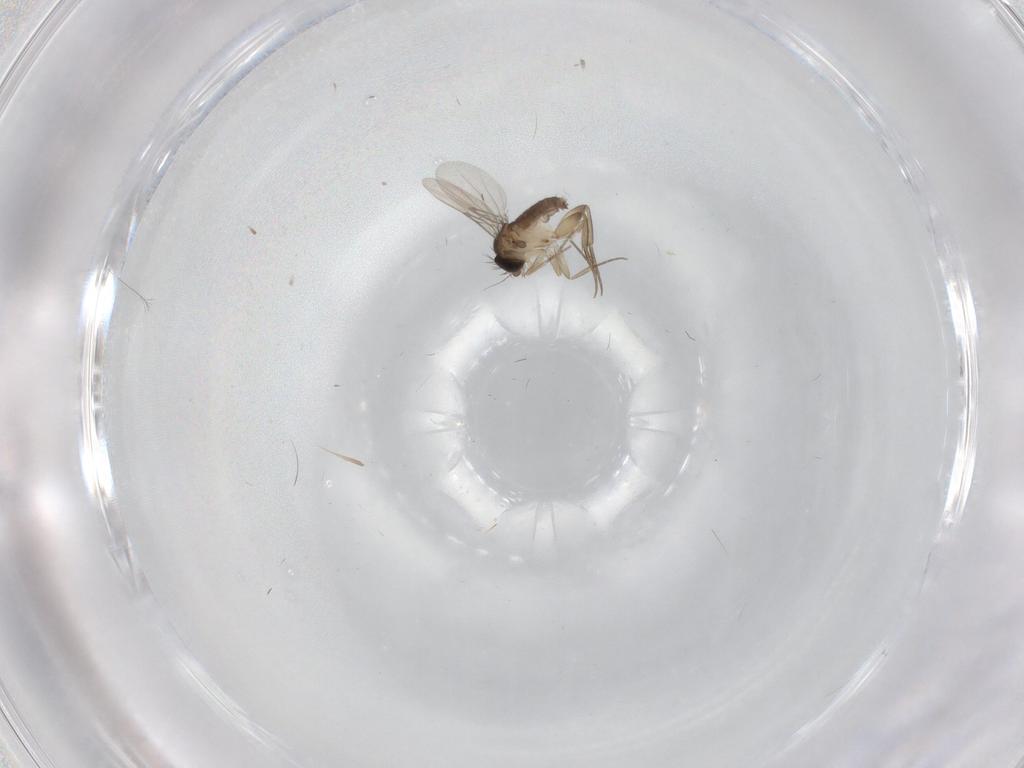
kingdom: Animalia
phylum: Arthropoda
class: Insecta
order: Diptera
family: Phoridae
